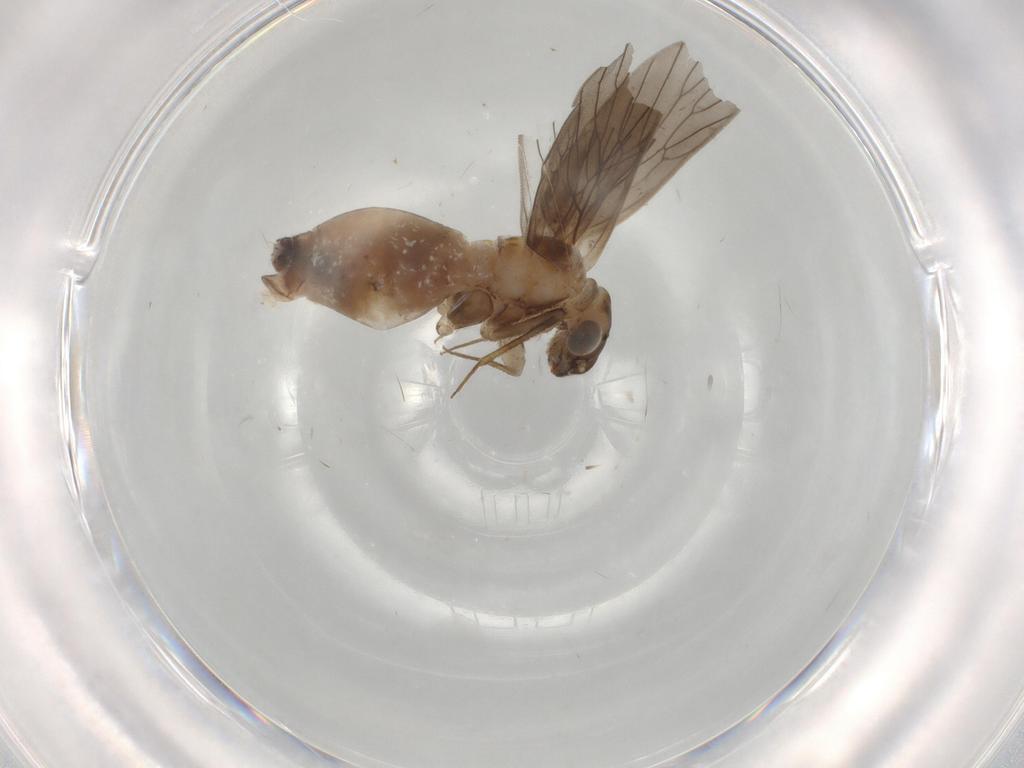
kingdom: Animalia
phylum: Arthropoda
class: Insecta
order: Psocodea
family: Lepidopsocidae
